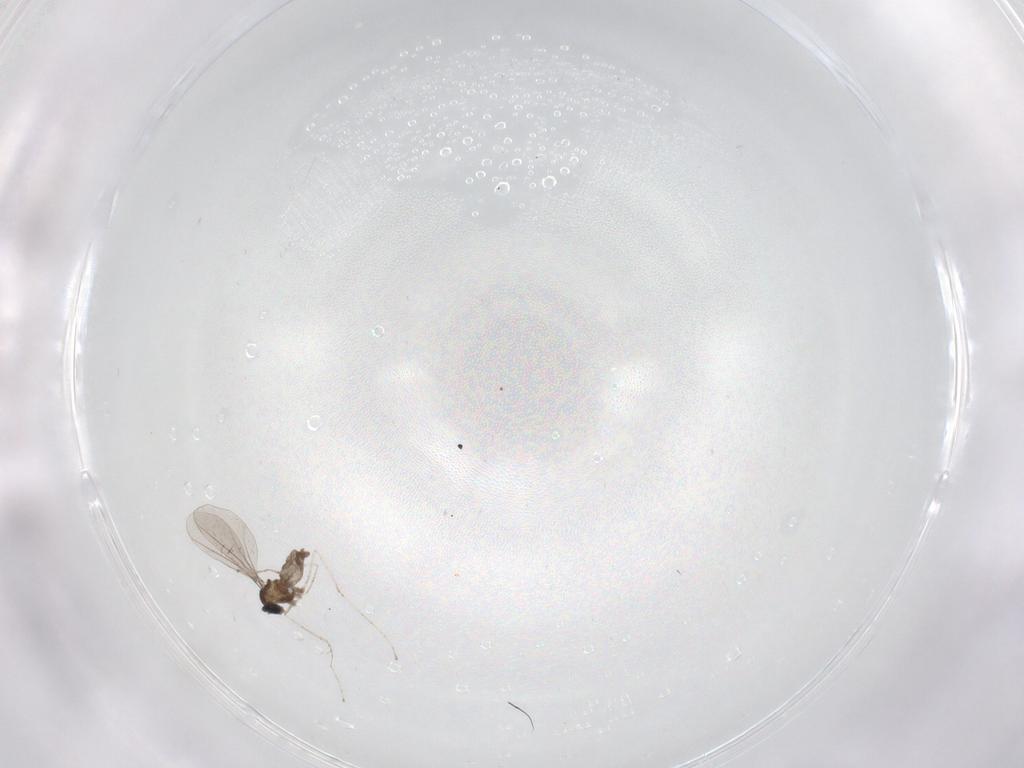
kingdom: Animalia
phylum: Arthropoda
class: Insecta
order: Diptera
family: Cecidomyiidae
